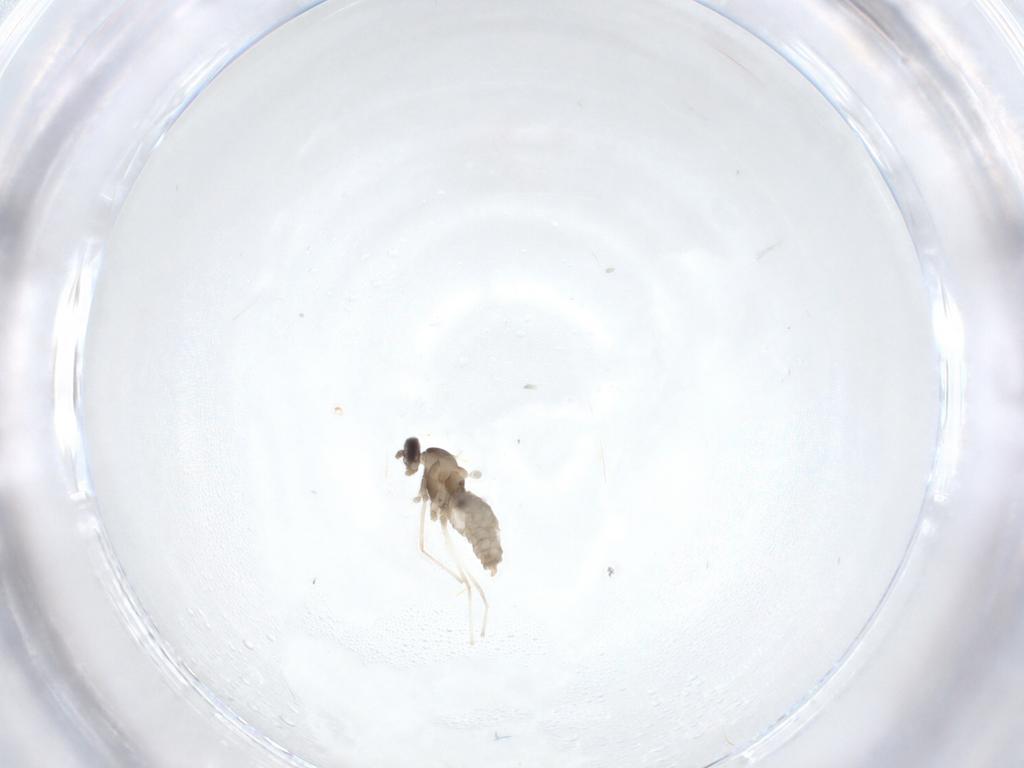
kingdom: Animalia
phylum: Arthropoda
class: Insecta
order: Diptera
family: Cecidomyiidae
